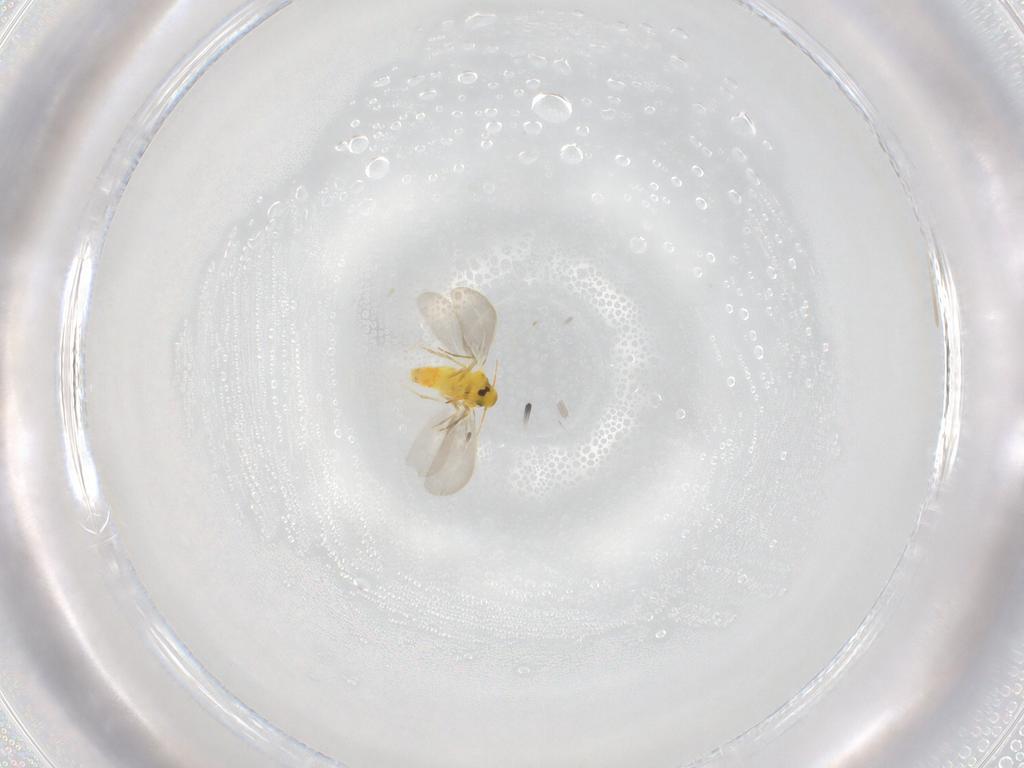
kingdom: Animalia
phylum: Arthropoda
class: Insecta
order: Hemiptera
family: Aleyrodidae
